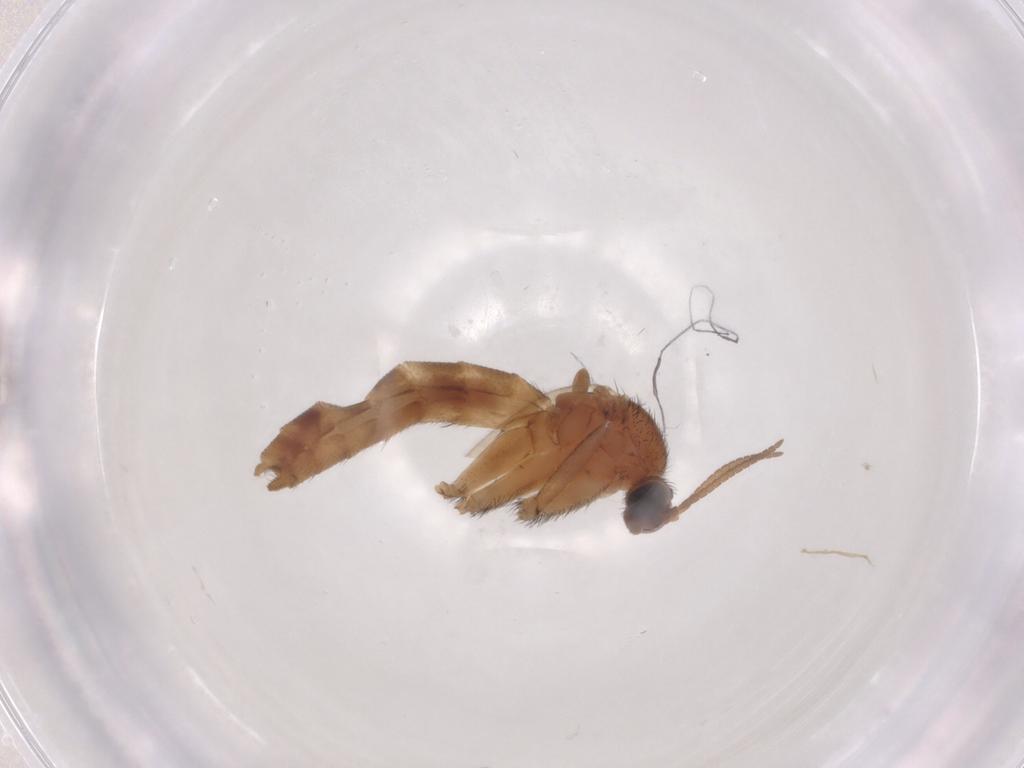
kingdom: Animalia
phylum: Arthropoda
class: Insecta
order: Diptera
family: Keroplatidae
